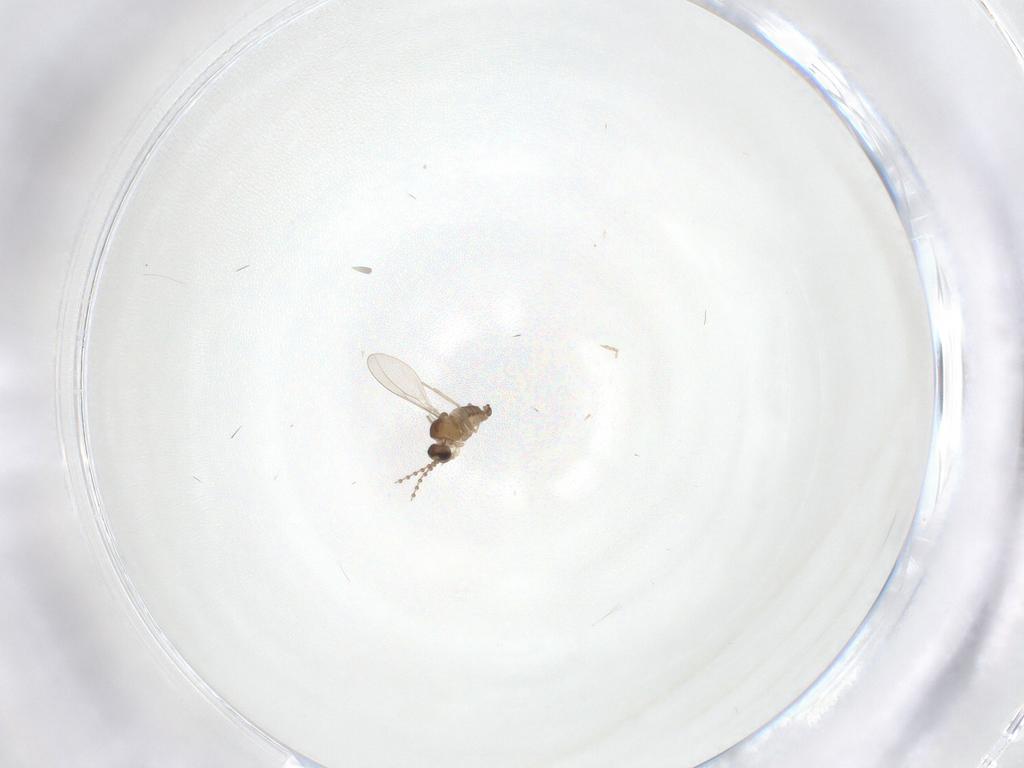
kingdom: Animalia
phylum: Arthropoda
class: Insecta
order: Diptera
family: Cecidomyiidae
